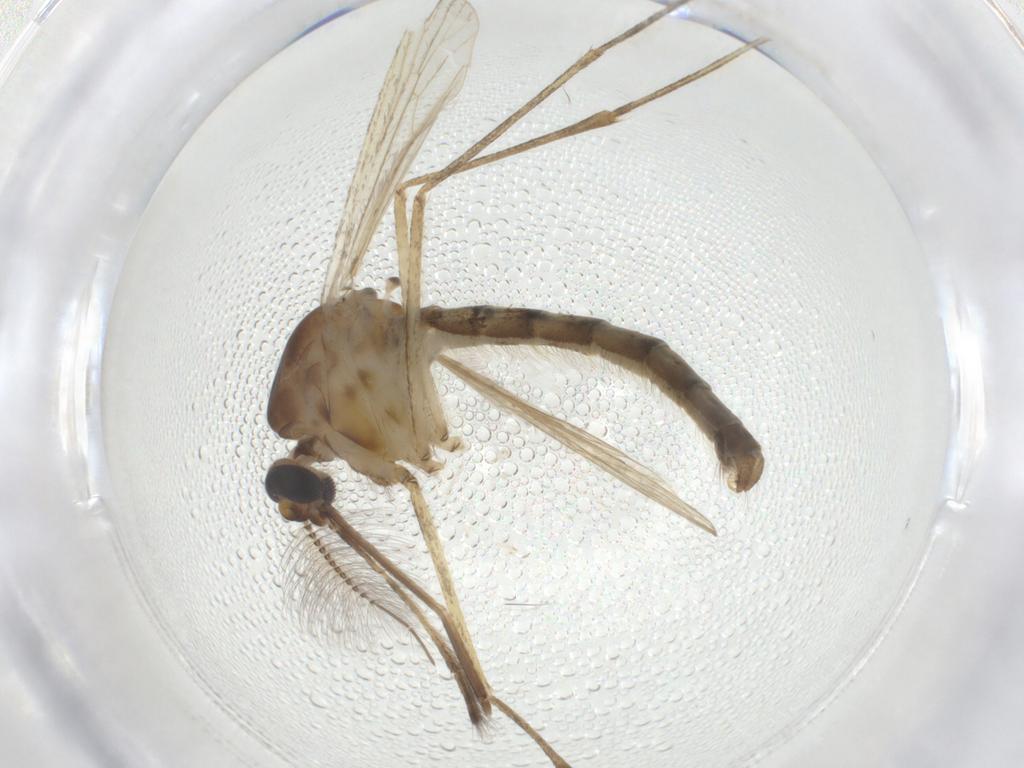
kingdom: Animalia
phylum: Arthropoda
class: Insecta
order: Diptera
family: Culicidae
